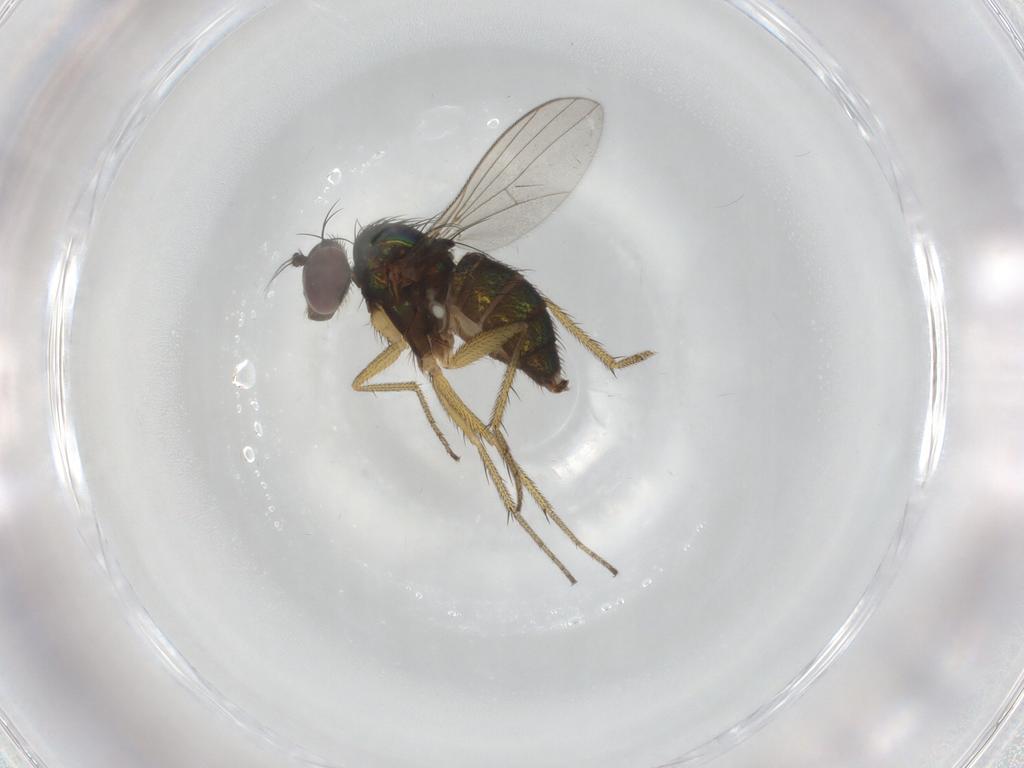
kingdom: Animalia
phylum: Arthropoda
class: Insecta
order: Diptera
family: Dolichopodidae
